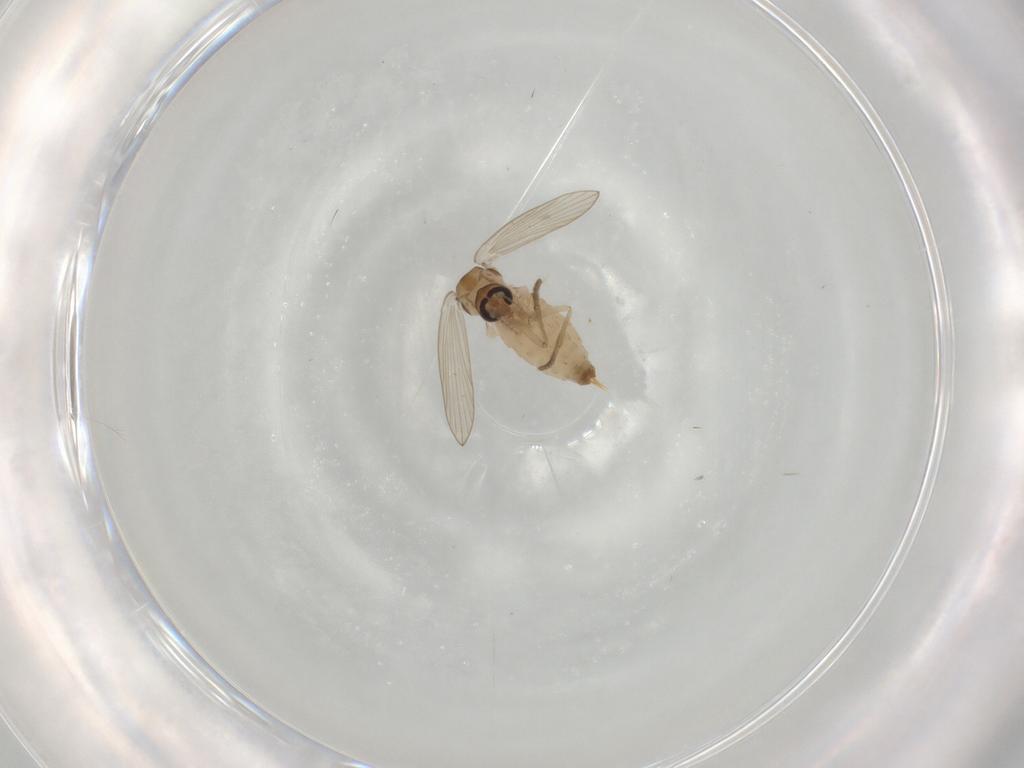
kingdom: Animalia
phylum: Arthropoda
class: Insecta
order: Diptera
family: Psychodidae
